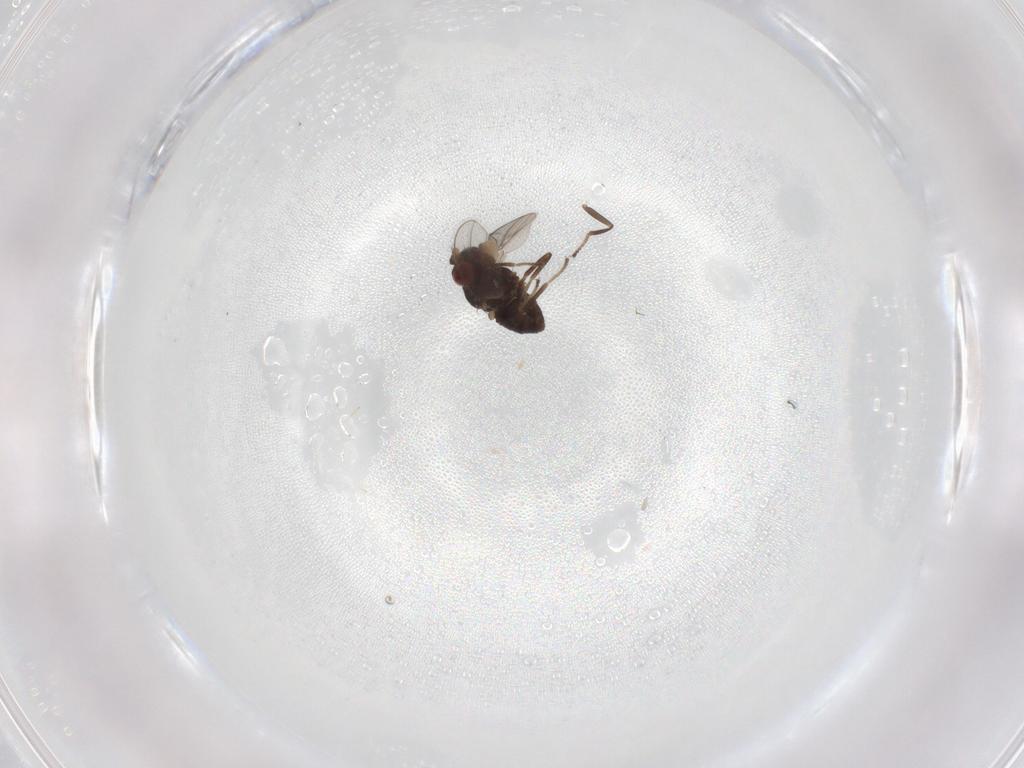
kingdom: Animalia
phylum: Arthropoda
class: Insecta
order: Diptera
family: Ephydridae
